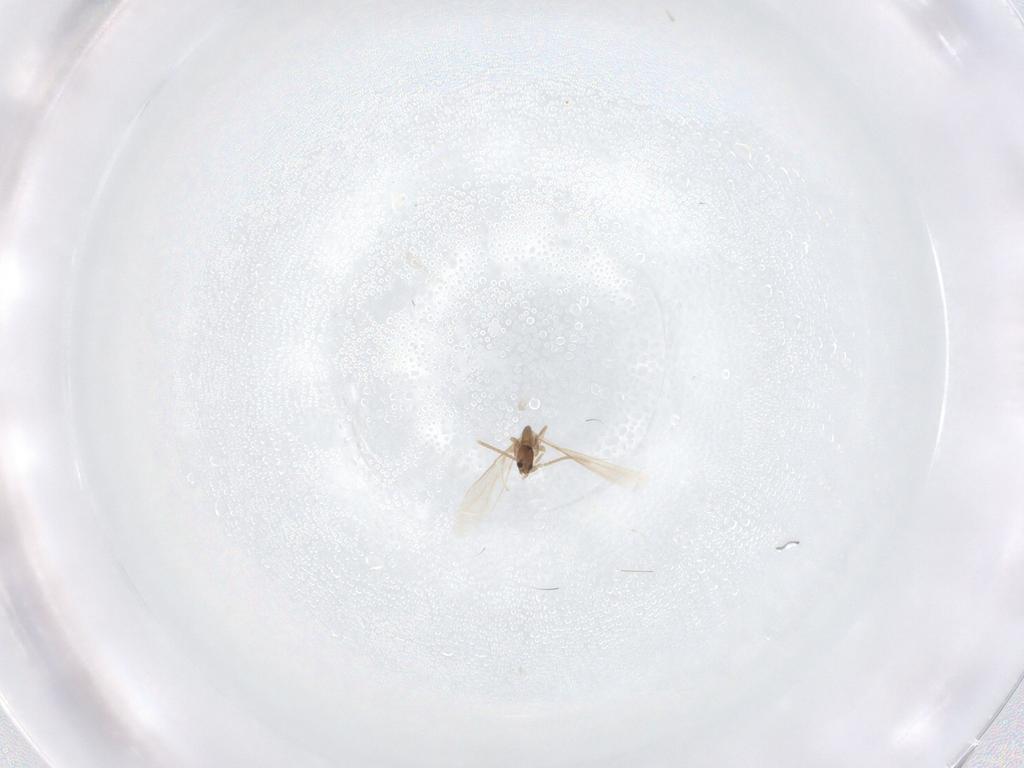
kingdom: Animalia
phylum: Arthropoda
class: Insecta
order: Hymenoptera
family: Formicidae
